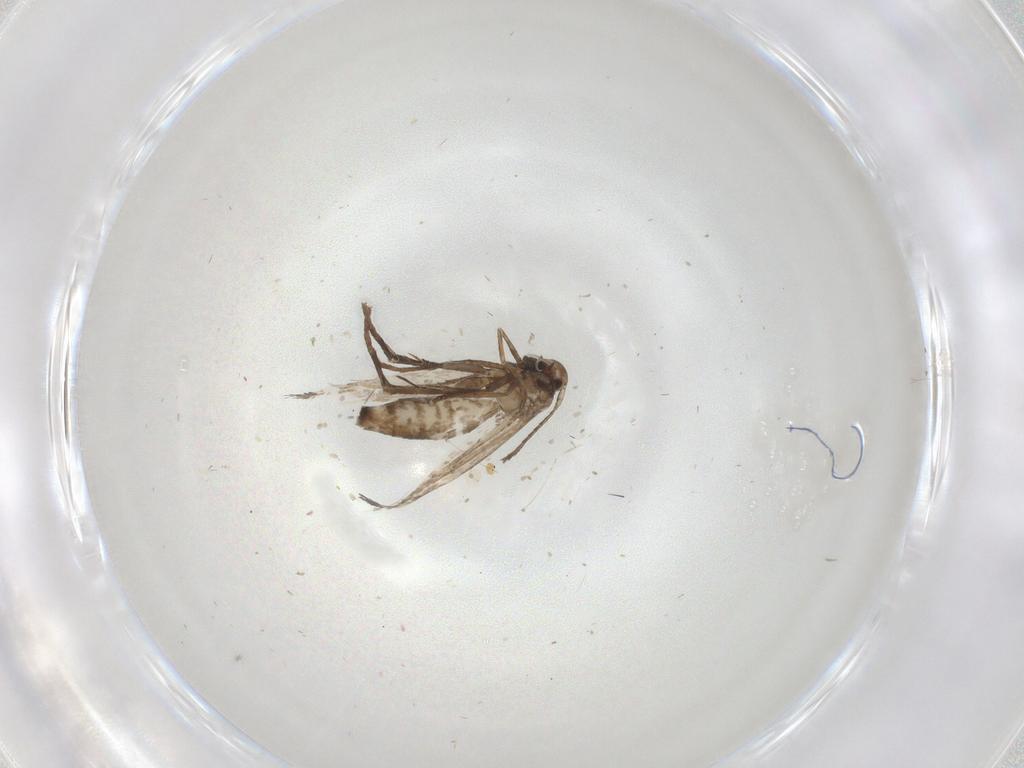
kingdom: Animalia
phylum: Arthropoda
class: Insecta
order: Lepidoptera
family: Gracillariidae
